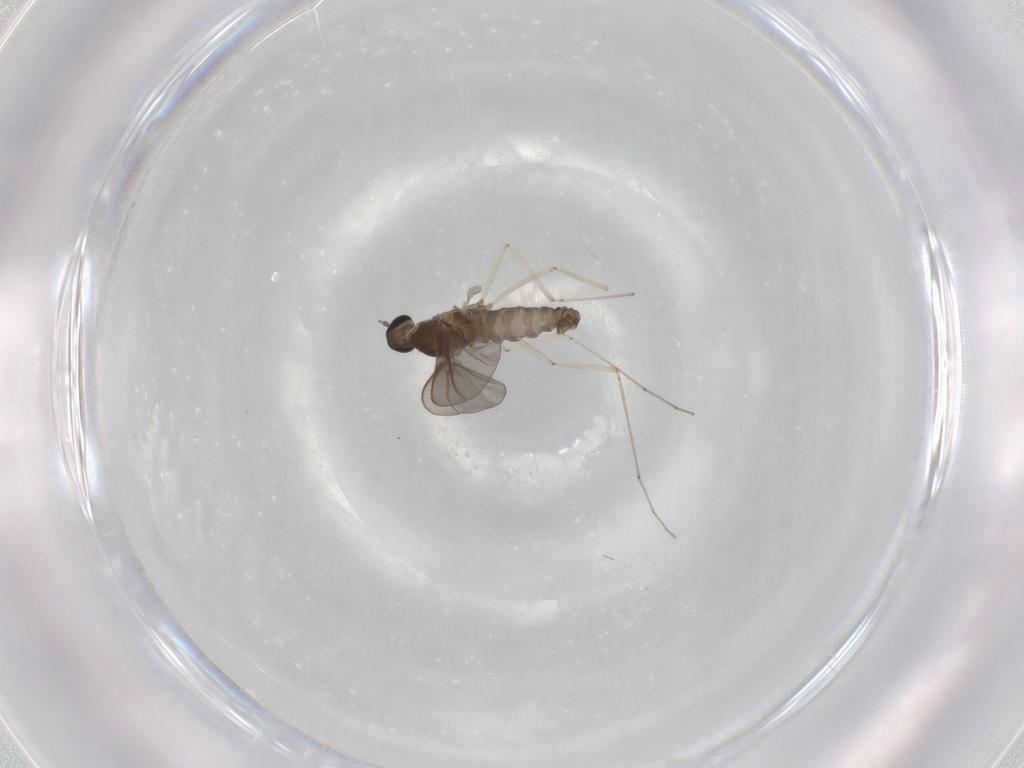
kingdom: Animalia
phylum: Arthropoda
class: Insecta
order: Diptera
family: Cecidomyiidae
